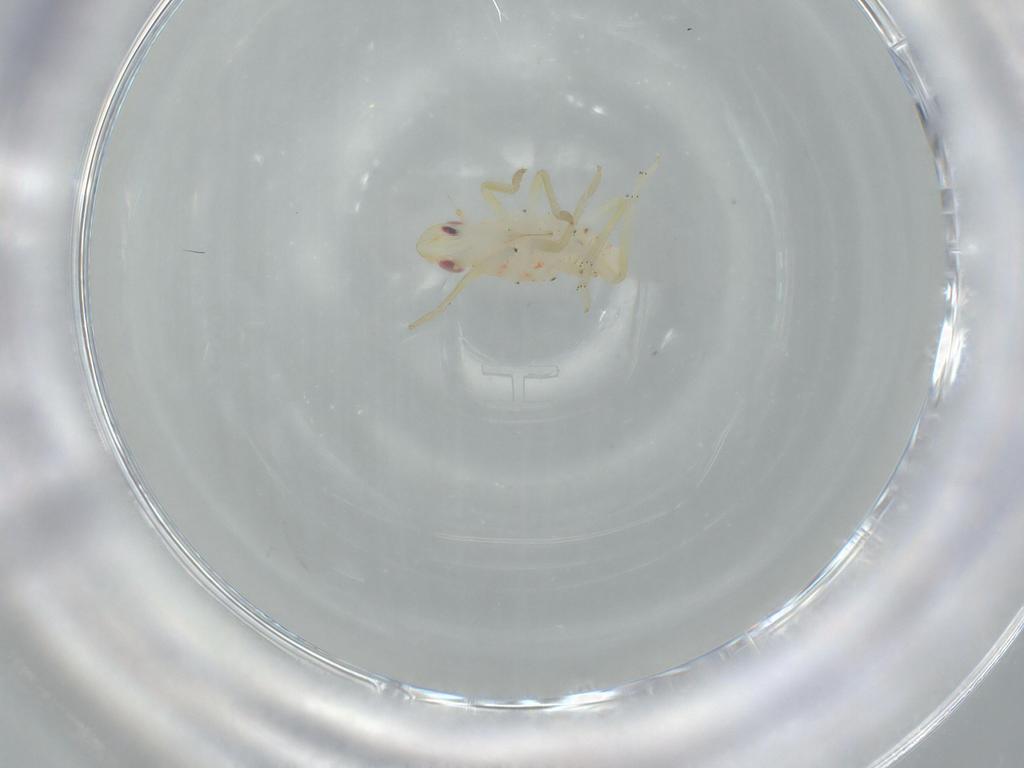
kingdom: Animalia
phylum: Arthropoda
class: Insecta
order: Hemiptera
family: Tropiduchidae
